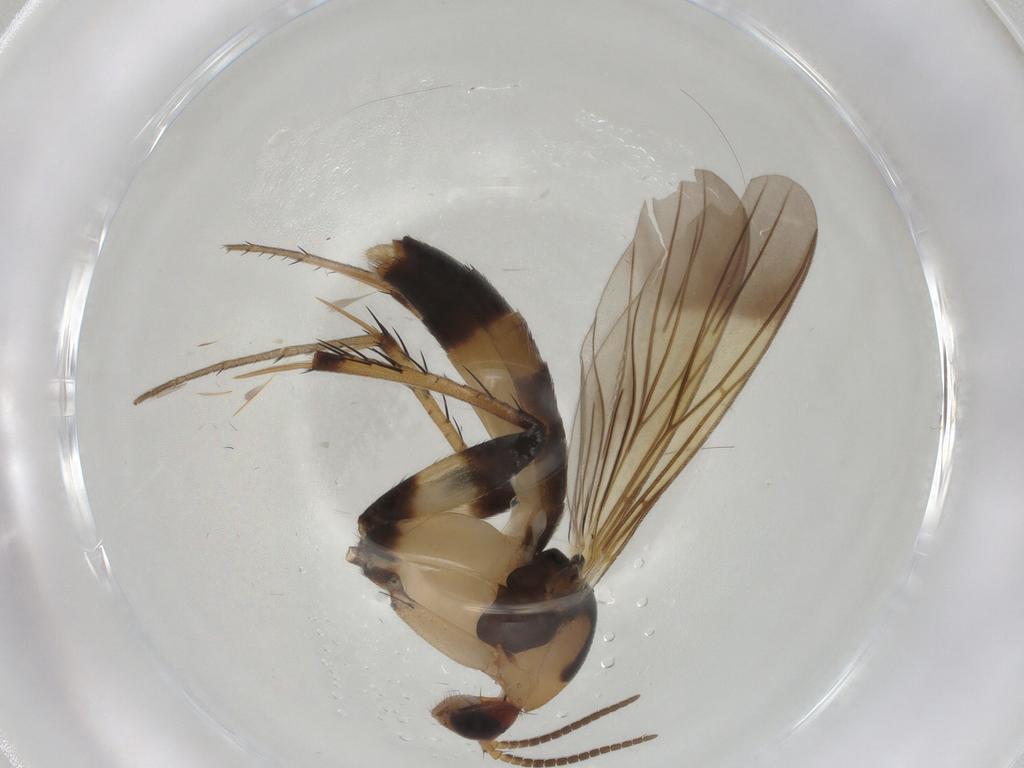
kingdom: Animalia
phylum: Arthropoda
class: Insecta
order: Diptera
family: Mycetophilidae
